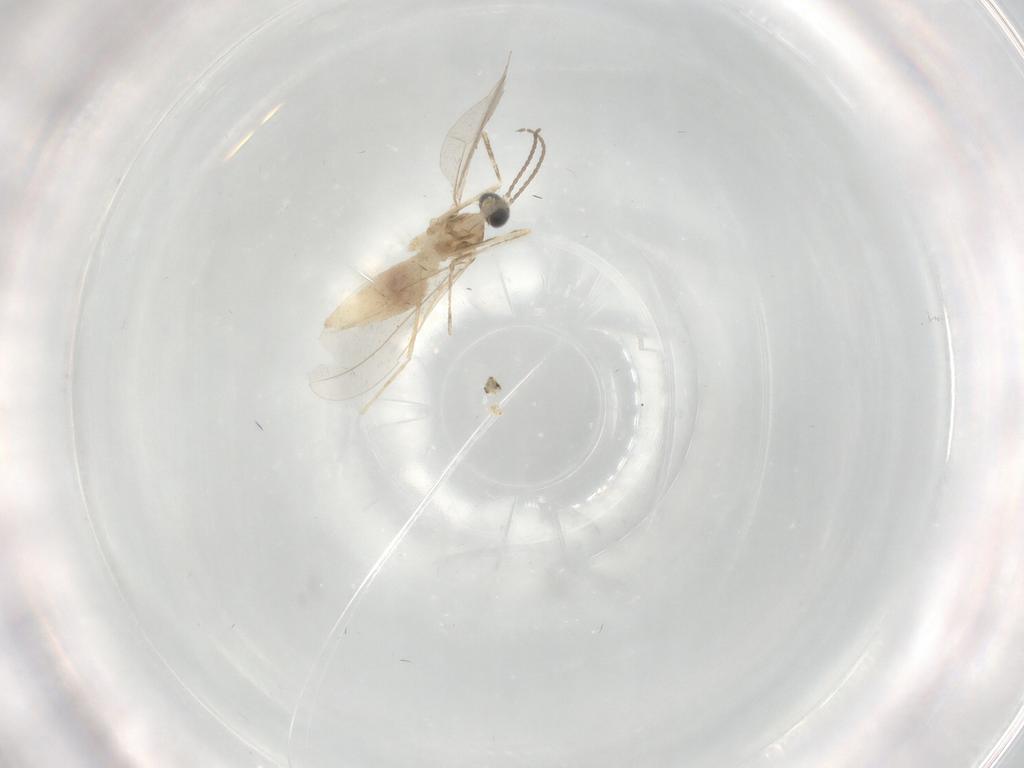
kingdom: Animalia
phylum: Arthropoda
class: Insecta
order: Diptera
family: Cecidomyiidae
